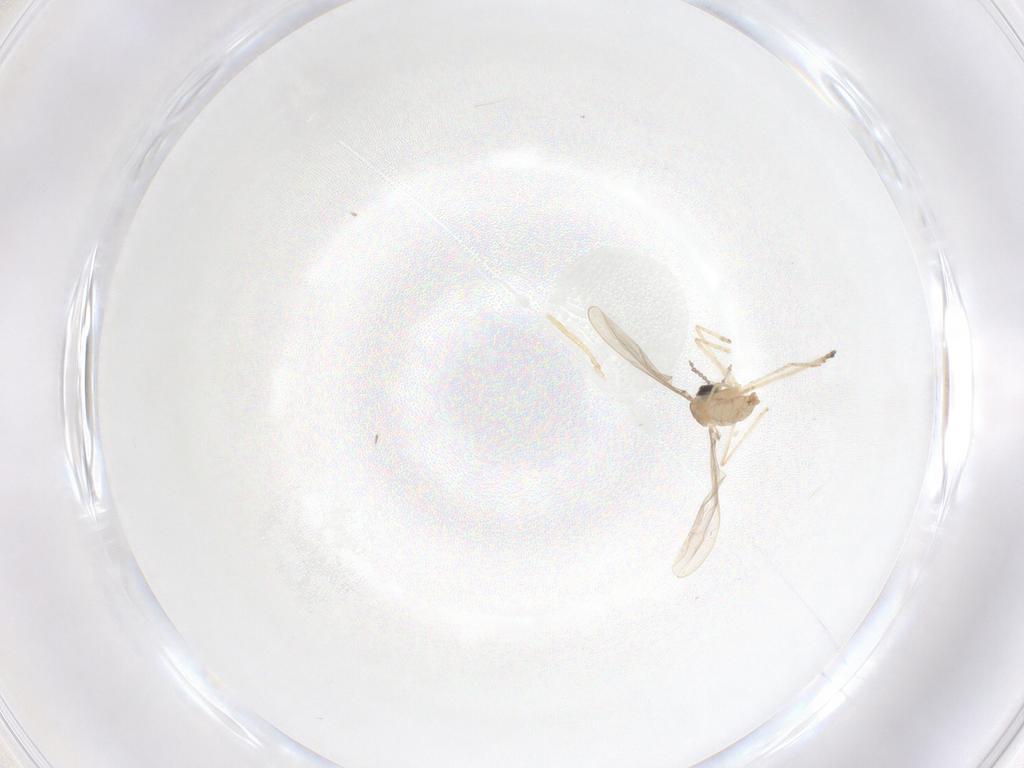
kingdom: Animalia
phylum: Arthropoda
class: Insecta
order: Diptera
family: Cecidomyiidae
